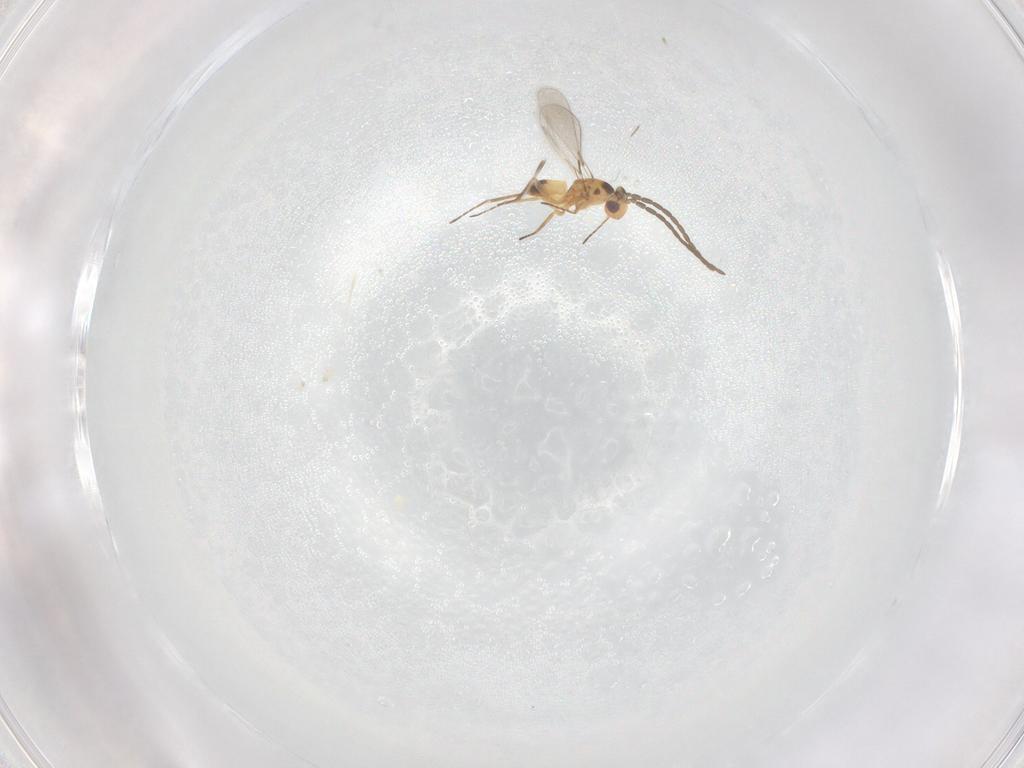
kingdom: Animalia
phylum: Arthropoda
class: Insecta
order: Hymenoptera
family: Mymaridae
